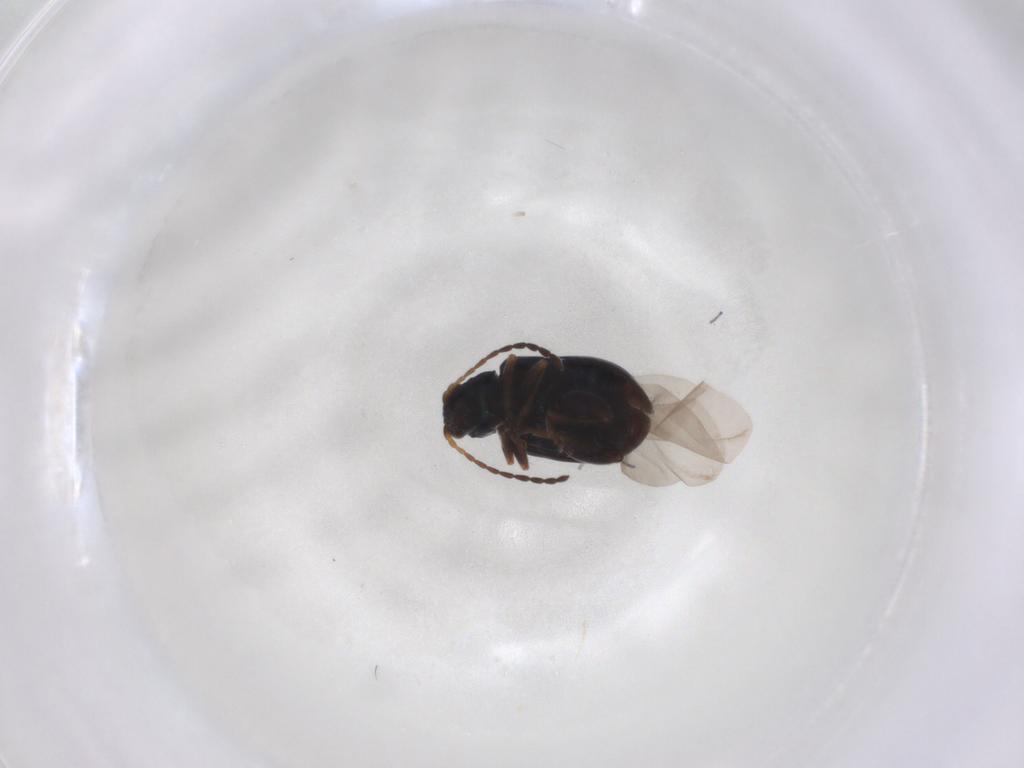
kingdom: Animalia
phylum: Arthropoda
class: Insecta
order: Coleoptera
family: Chrysomelidae
